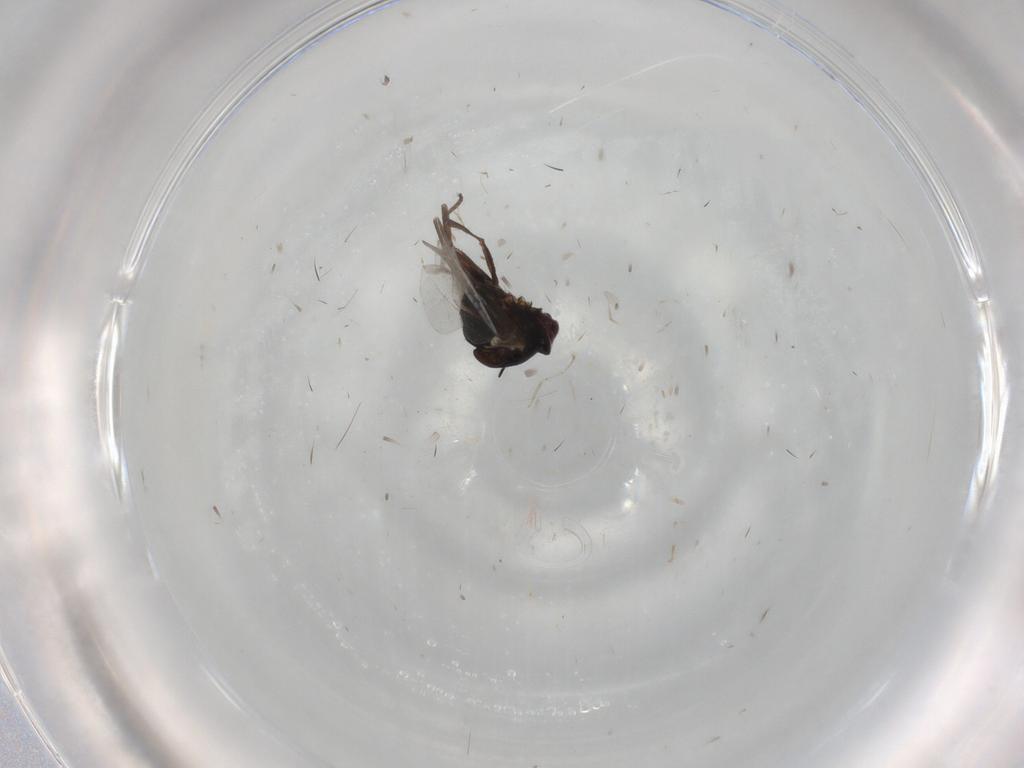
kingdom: Animalia
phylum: Arthropoda
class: Insecta
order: Diptera
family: Glossinidae
